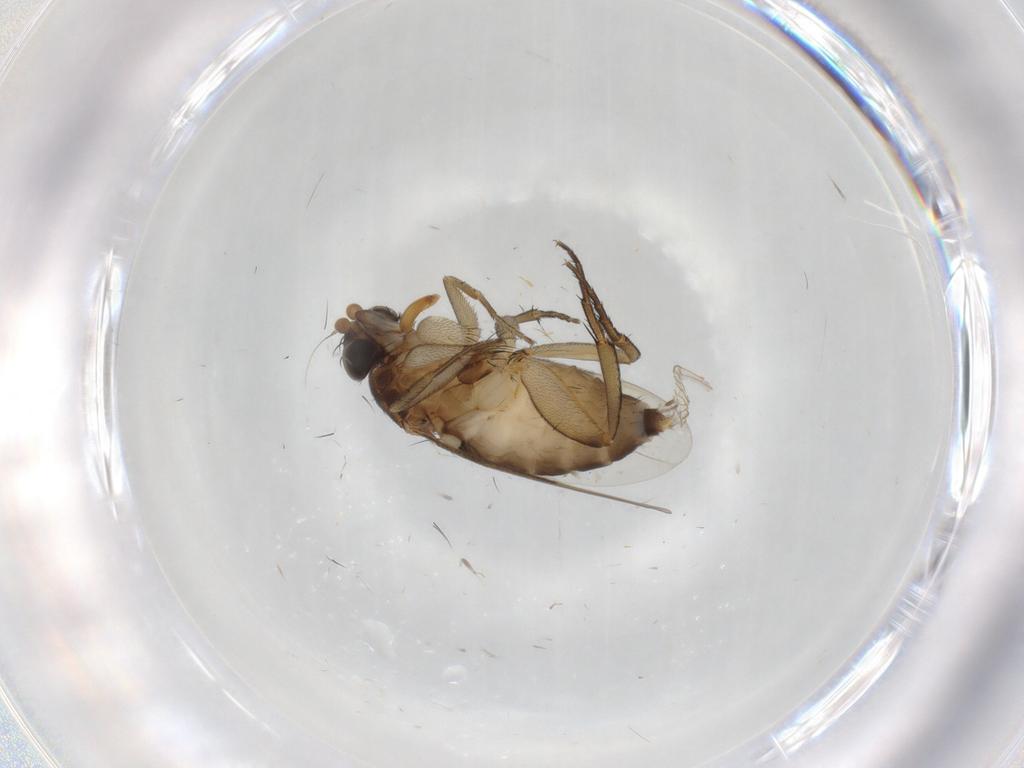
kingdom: Animalia
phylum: Arthropoda
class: Insecta
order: Diptera
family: Phoridae
